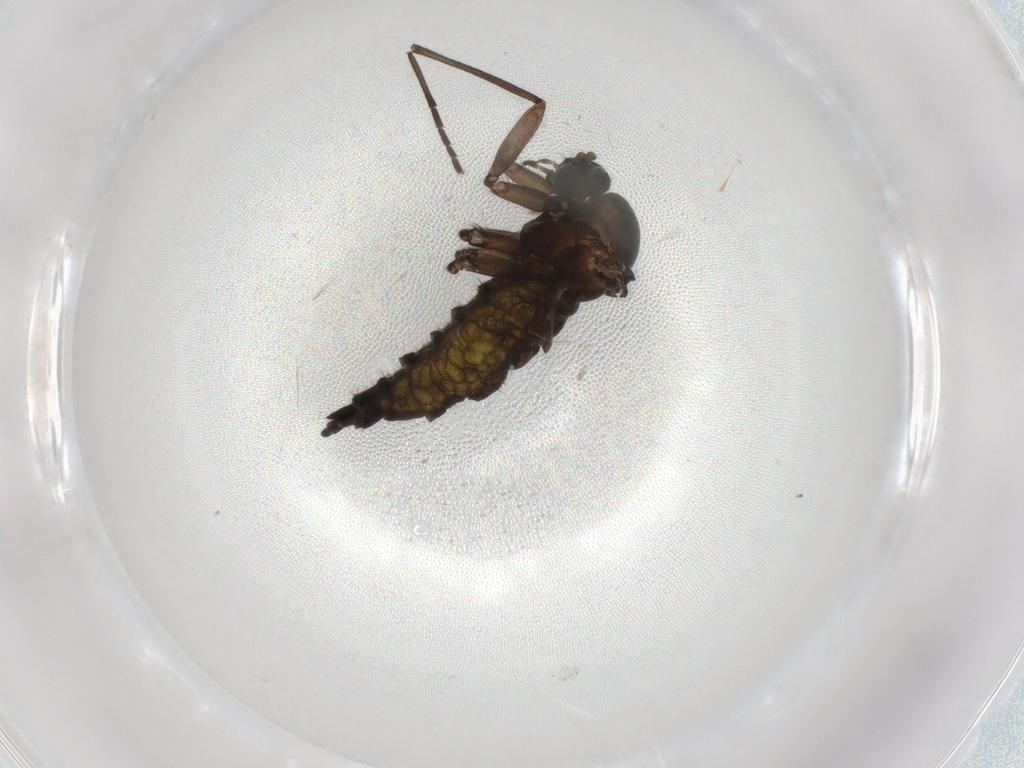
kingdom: Animalia
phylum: Arthropoda
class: Insecta
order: Diptera
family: Sciaridae
